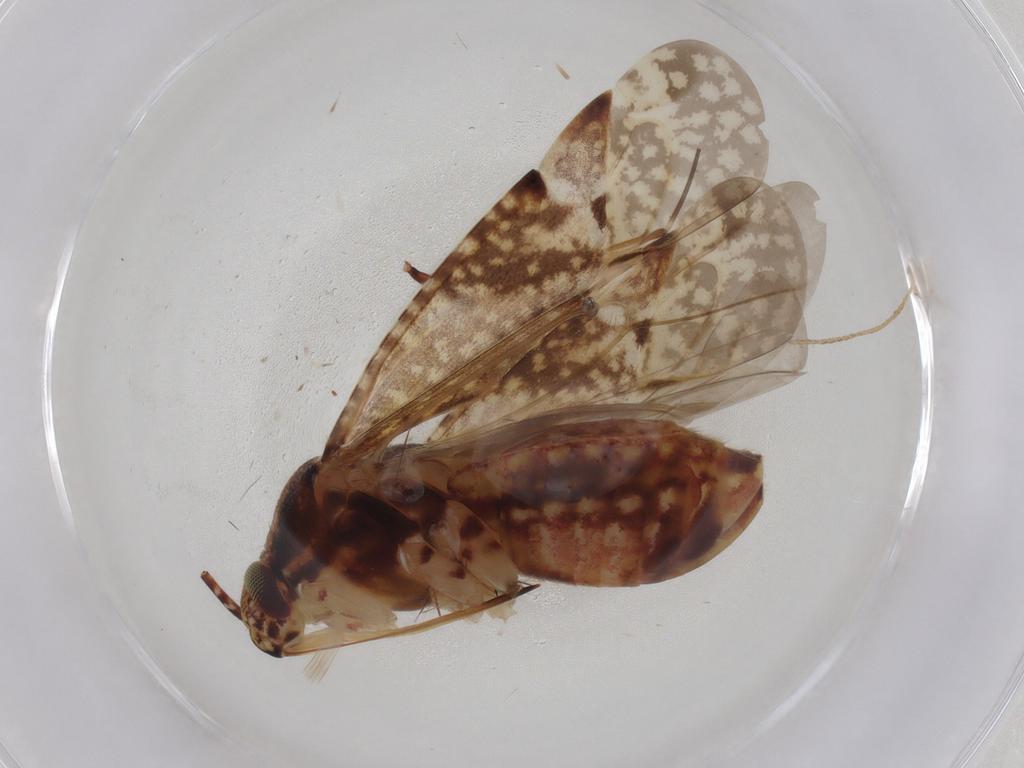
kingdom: Animalia
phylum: Arthropoda
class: Insecta
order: Hemiptera
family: Miridae
